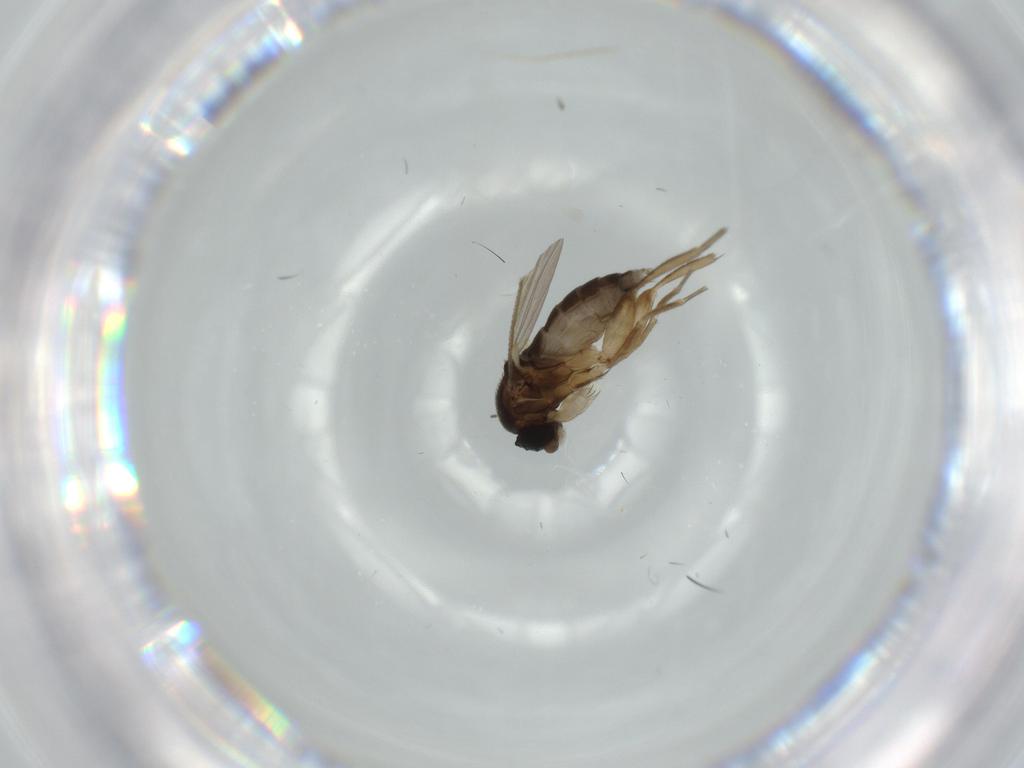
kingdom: Animalia
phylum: Arthropoda
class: Insecta
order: Diptera
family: Phoridae
